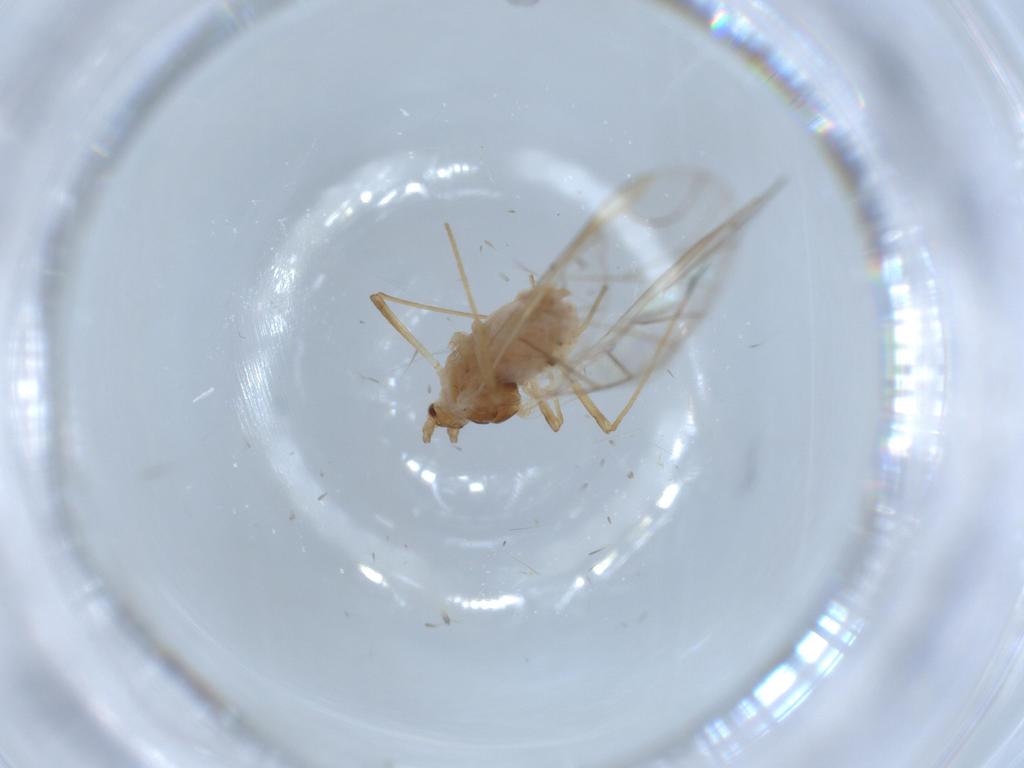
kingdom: Animalia
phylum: Arthropoda
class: Insecta
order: Hemiptera
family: Aphididae
